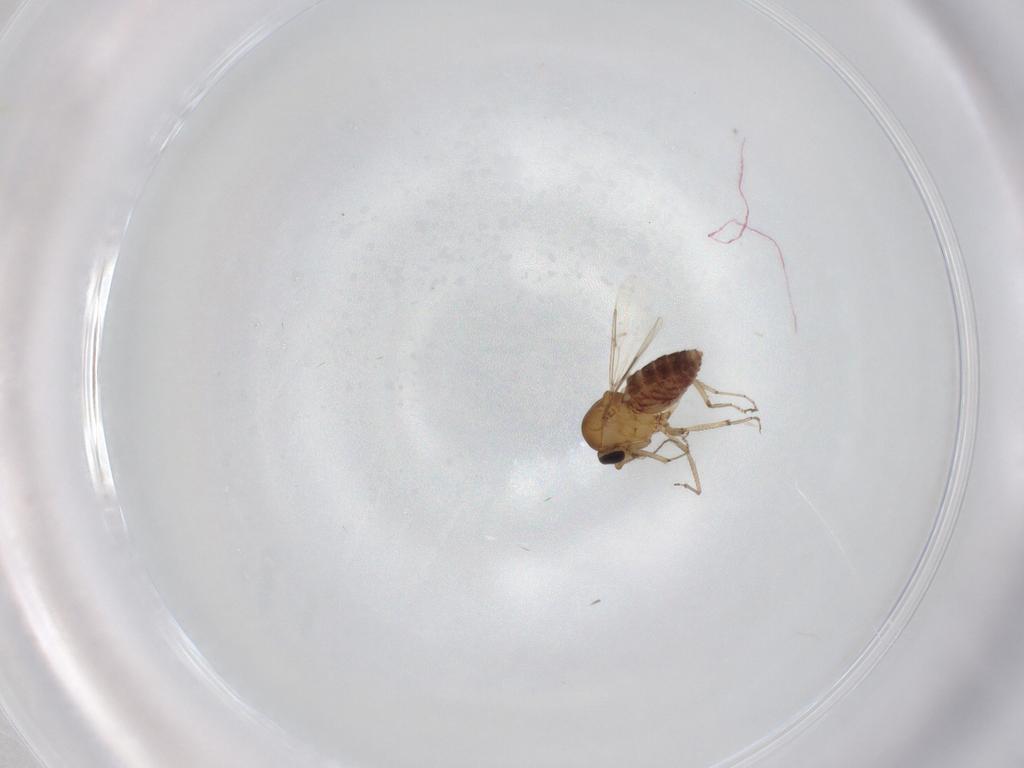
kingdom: Animalia
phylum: Arthropoda
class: Insecta
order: Diptera
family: Ceratopogonidae
